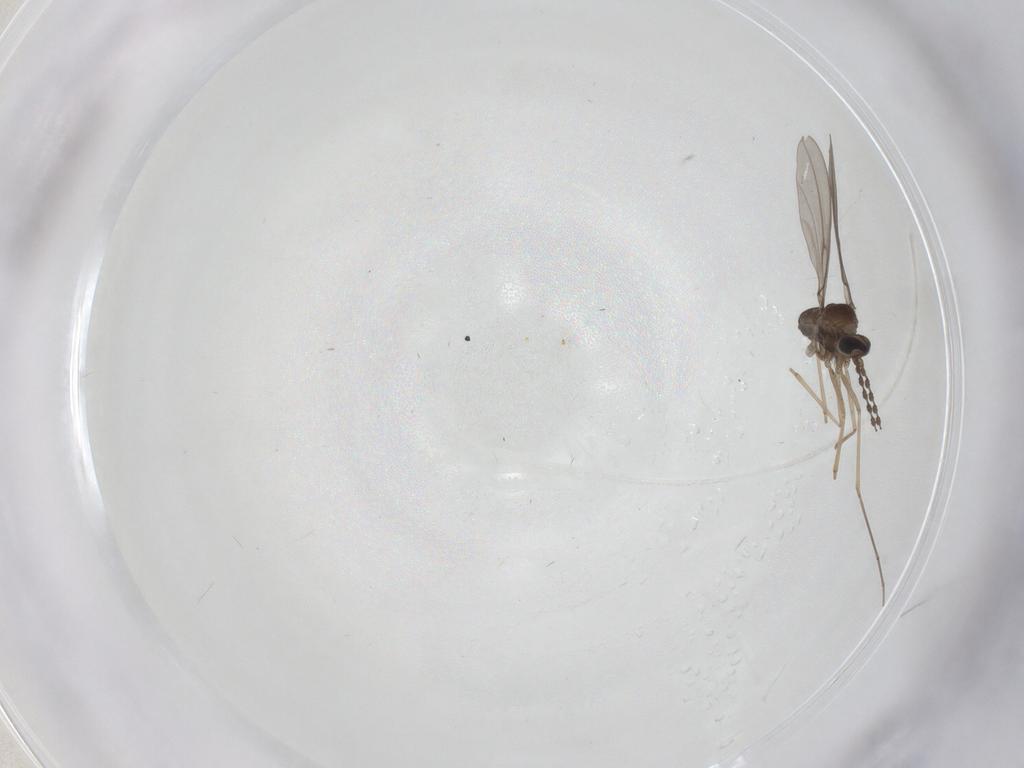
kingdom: Animalia
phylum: Arthropoda
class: Insecta
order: Diptera
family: Cecidomyiidae
